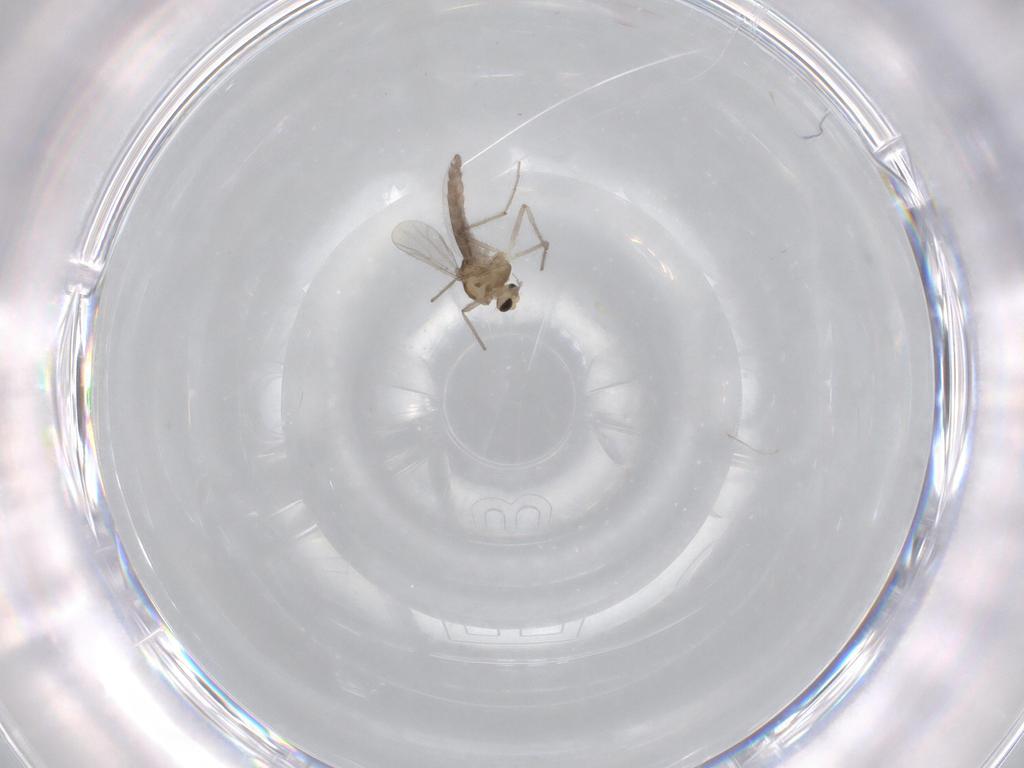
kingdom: Animalia
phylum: Arthropoda
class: Insecta
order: Diptera
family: Chironomidae
